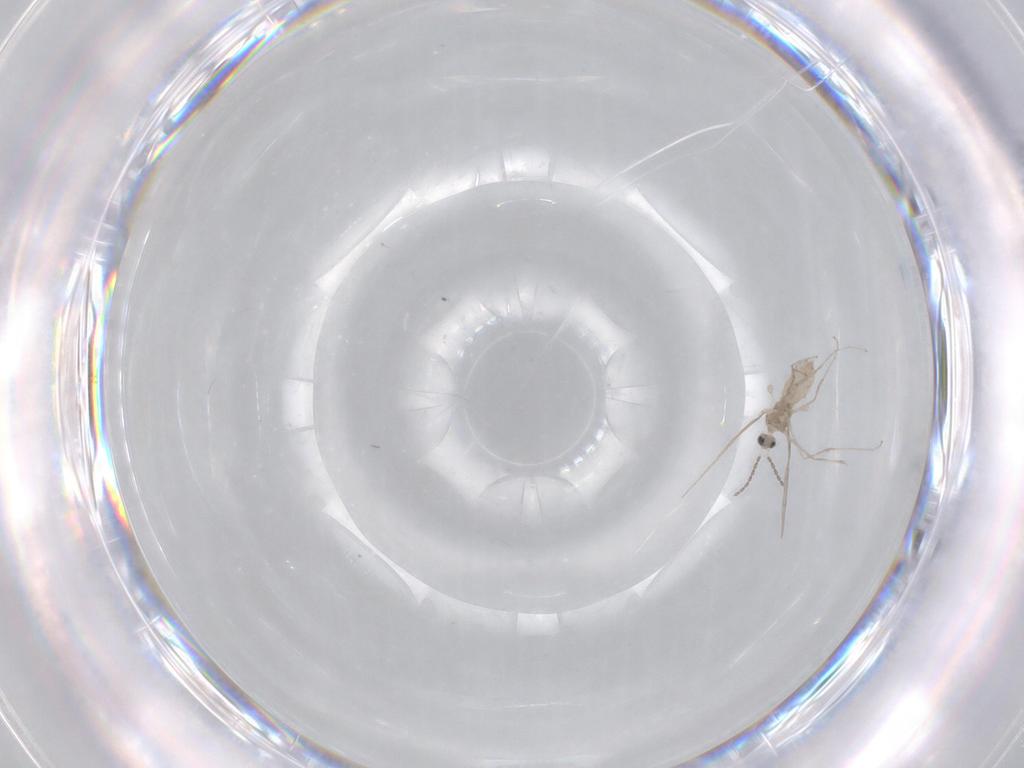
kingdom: Animalia
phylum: Arthropoda
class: Insecta
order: Diptera
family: Cecidomyiidae
